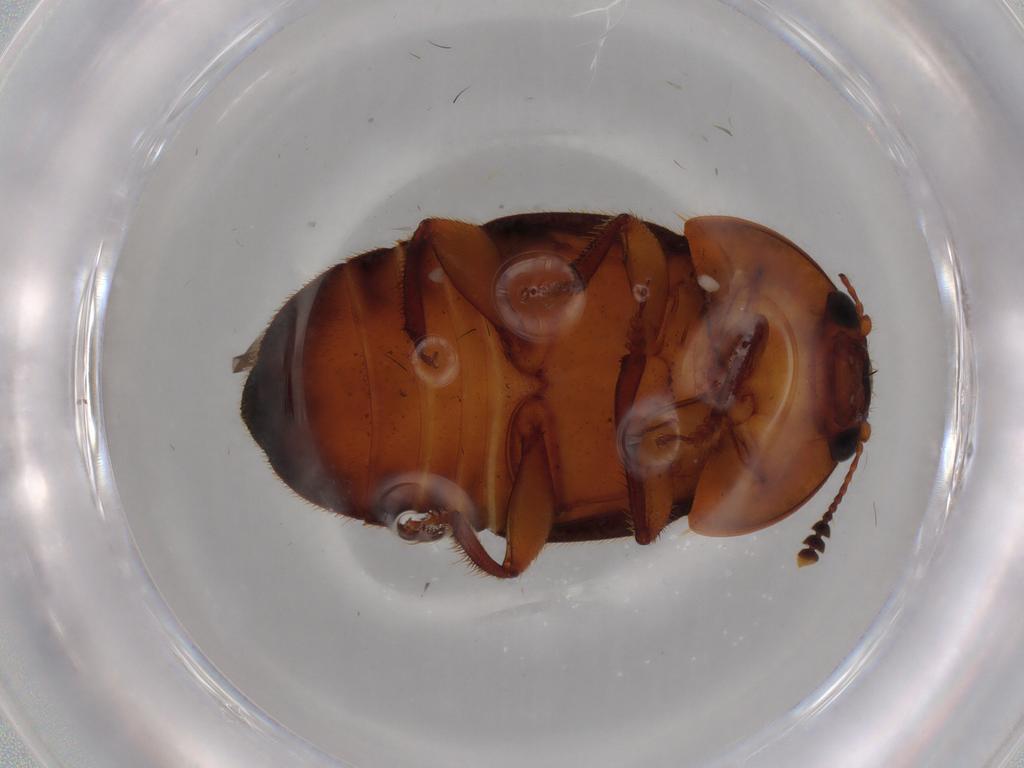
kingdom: Animalia
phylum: Arthropoda
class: Insecta
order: Coleoptera
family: Nitidulidae
